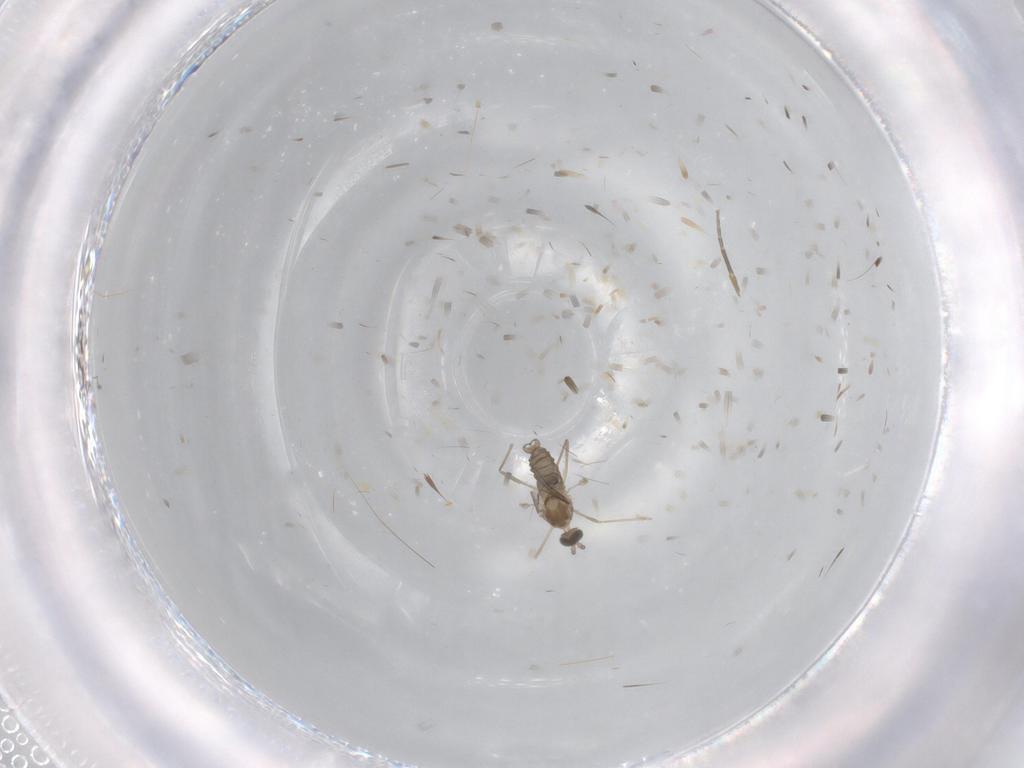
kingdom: Animalia
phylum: Arthropoda
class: Insecta
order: Diptera
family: Cecidomyiidae
